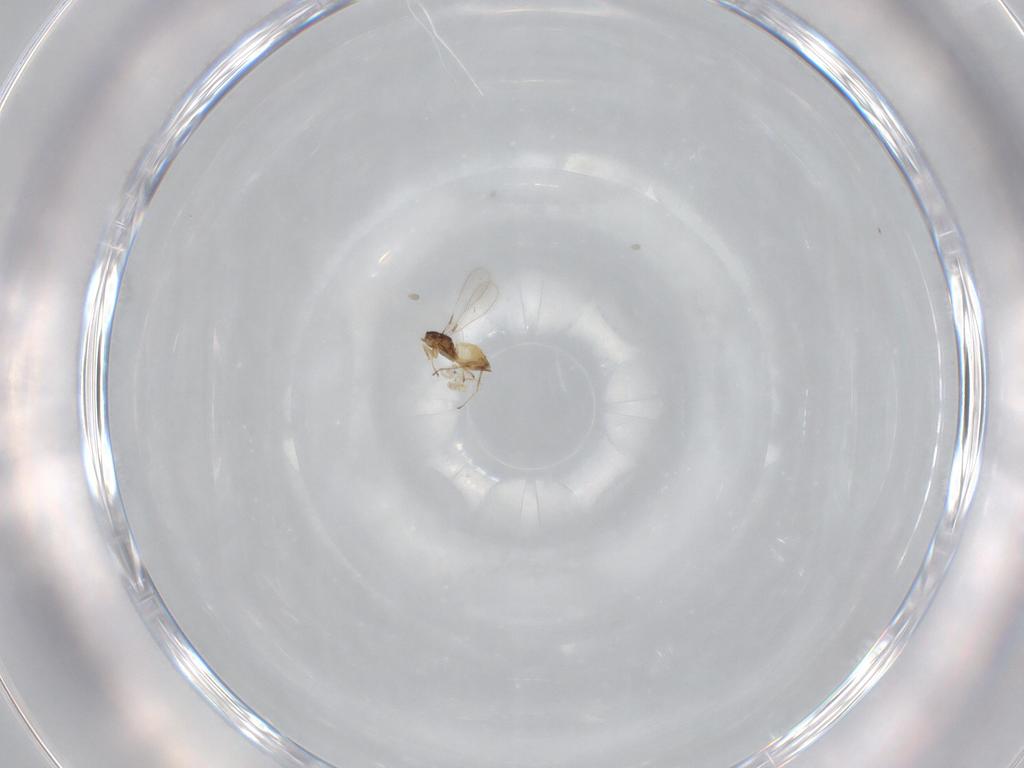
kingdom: Animalia
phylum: Arthropoda
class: Insecta
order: Hymenoptera
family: Mymaridae
